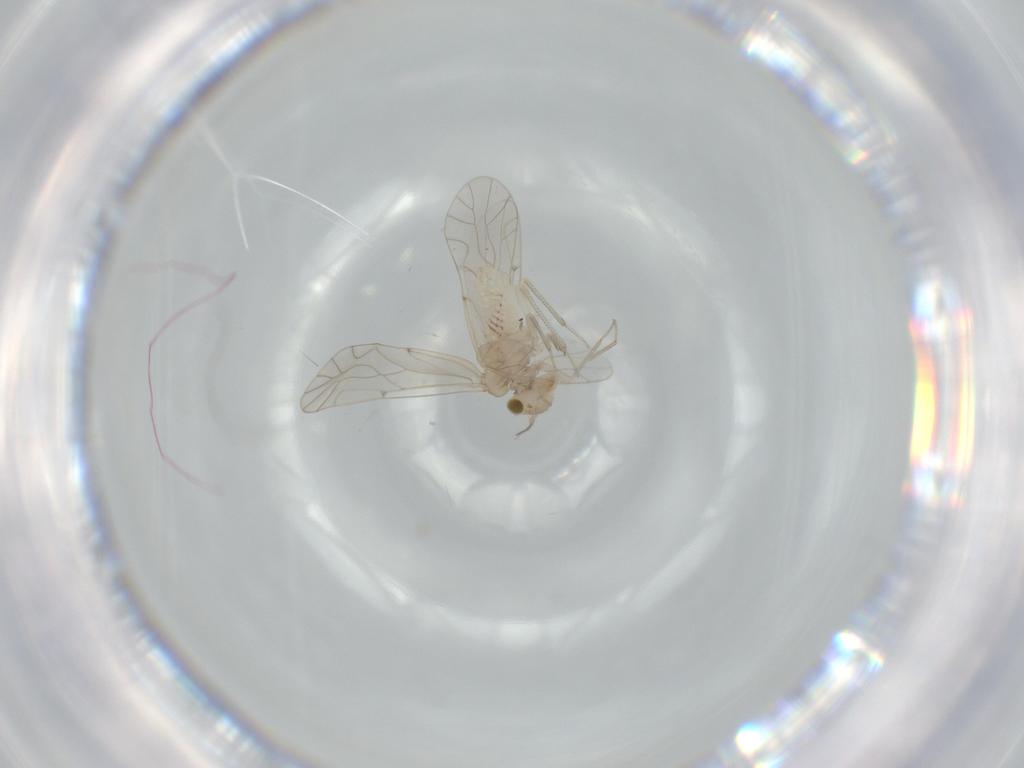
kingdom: Animalia
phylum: Arthropoda
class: Insecta
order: Psocodea
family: Lachesillidae
